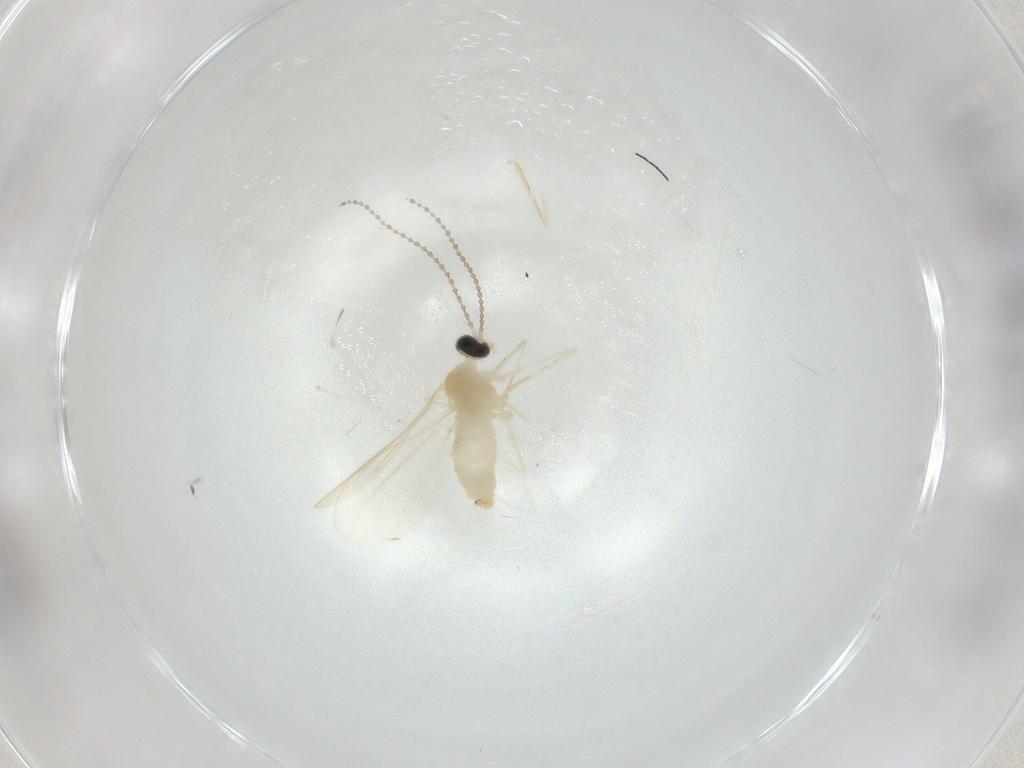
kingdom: Animalia
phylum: Arthropoda
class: Insecta
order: Diptera
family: Cecidomyiidae
